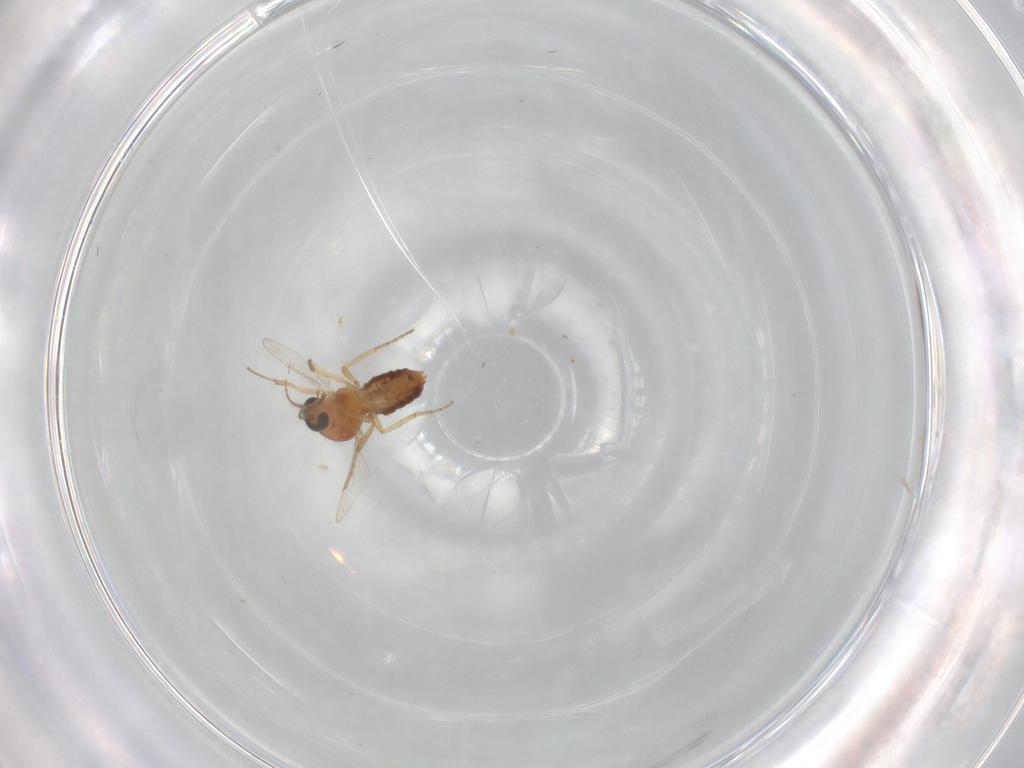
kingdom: Animalia
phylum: Arthropoda
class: Insecta
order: Diptera
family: Ceratopogonidae
